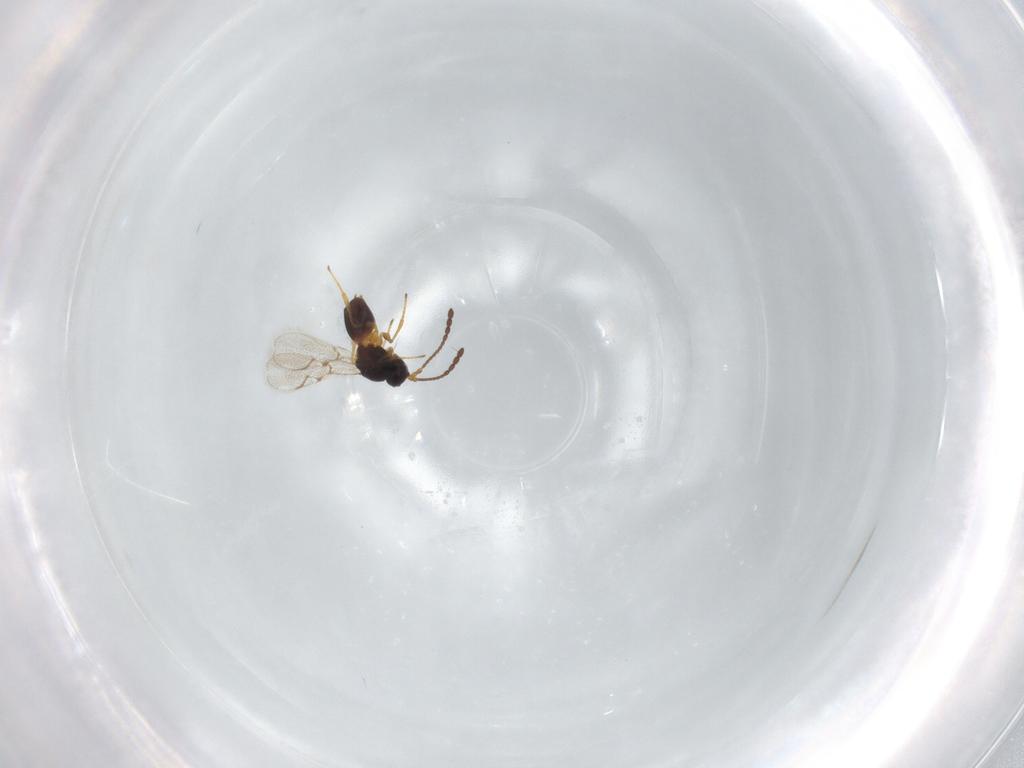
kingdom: Animalia
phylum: Arthropoda
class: Insecta
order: Hymenoptera
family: Figitidae
